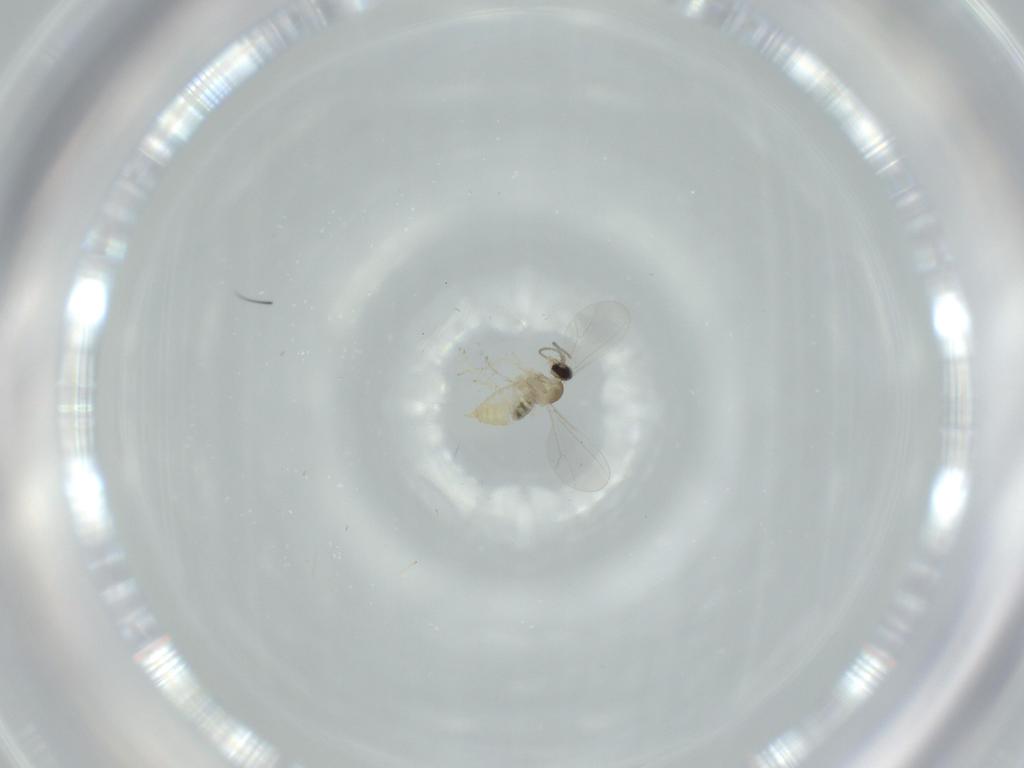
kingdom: Animalia
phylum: Arthropoda
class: Insecta
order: Diptera
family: Cecidomyiidae
